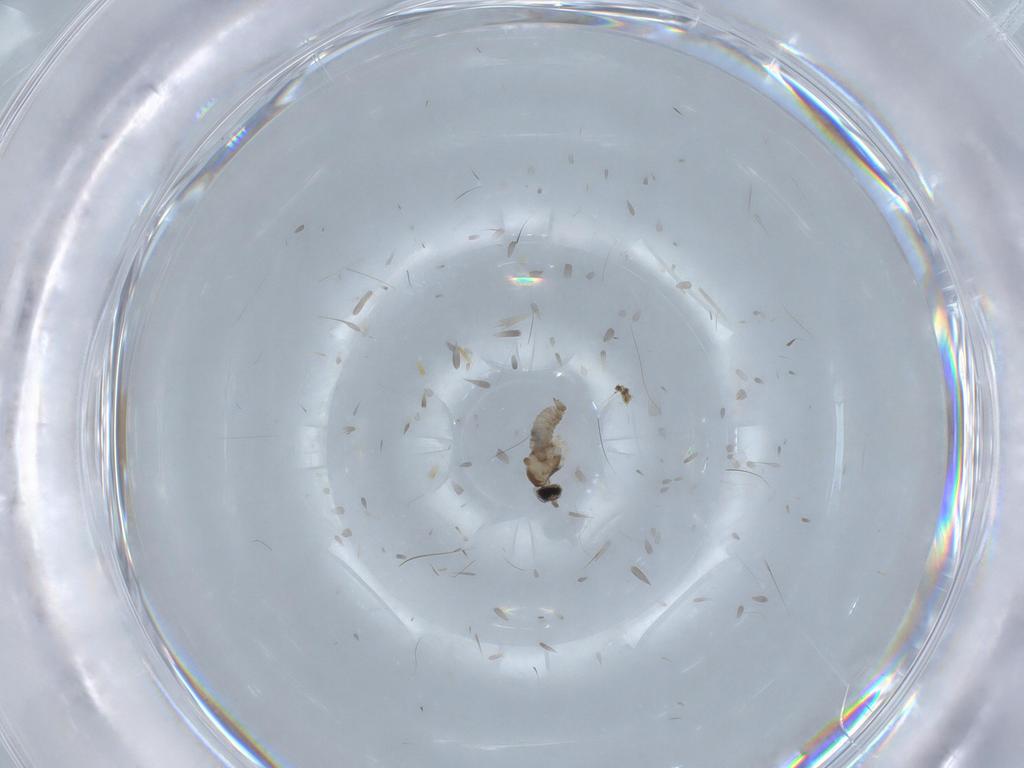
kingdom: Animalia
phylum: Arthropoda
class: Insecta
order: Diptera
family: Cecidomyiidae
